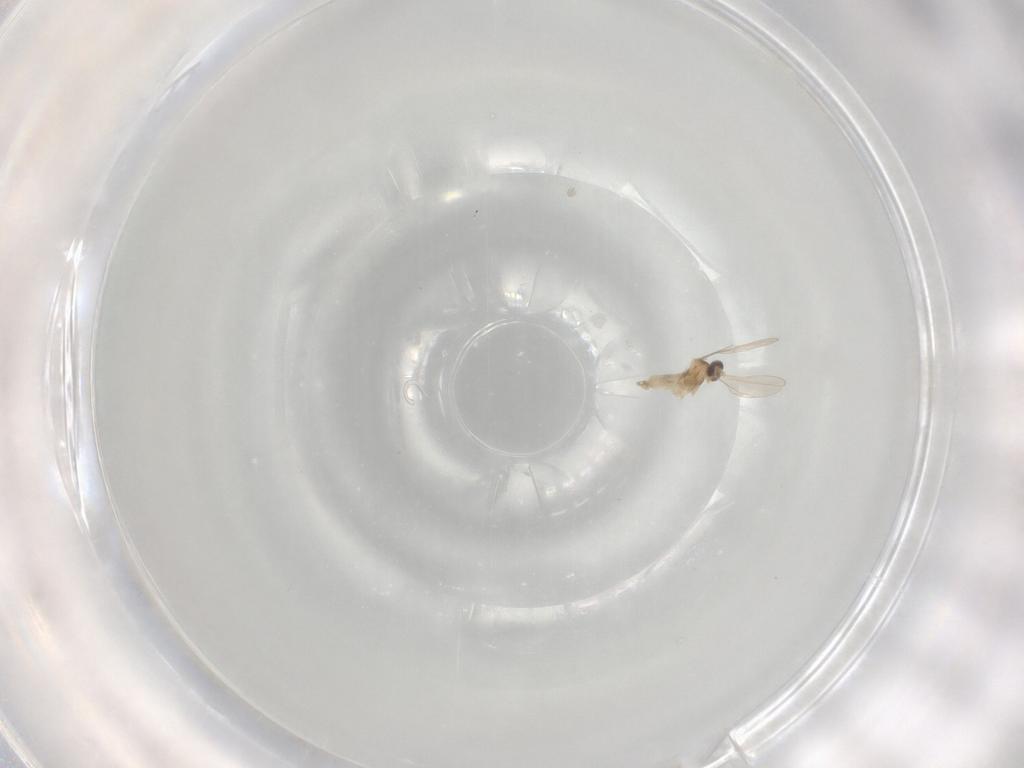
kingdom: Animalia
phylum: Arthropoda
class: Insecta
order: Diptera
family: Cecidomyiidae
